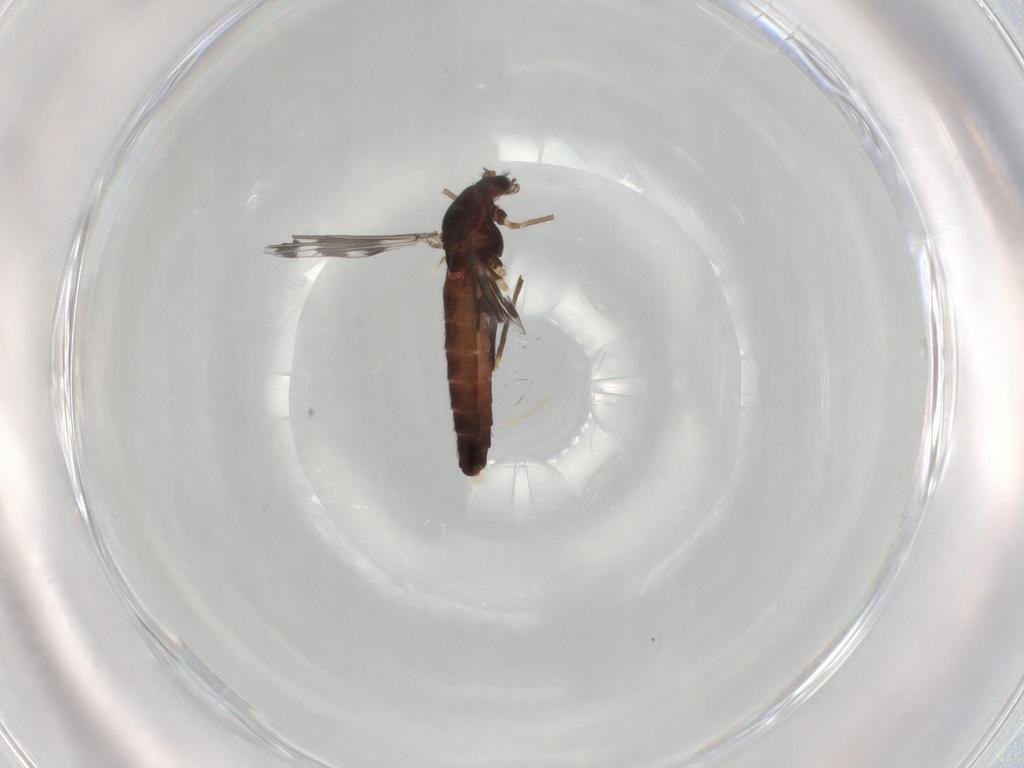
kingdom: Animalia
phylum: Arthropoda
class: Insecta
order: Diptera
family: Chironomidae
